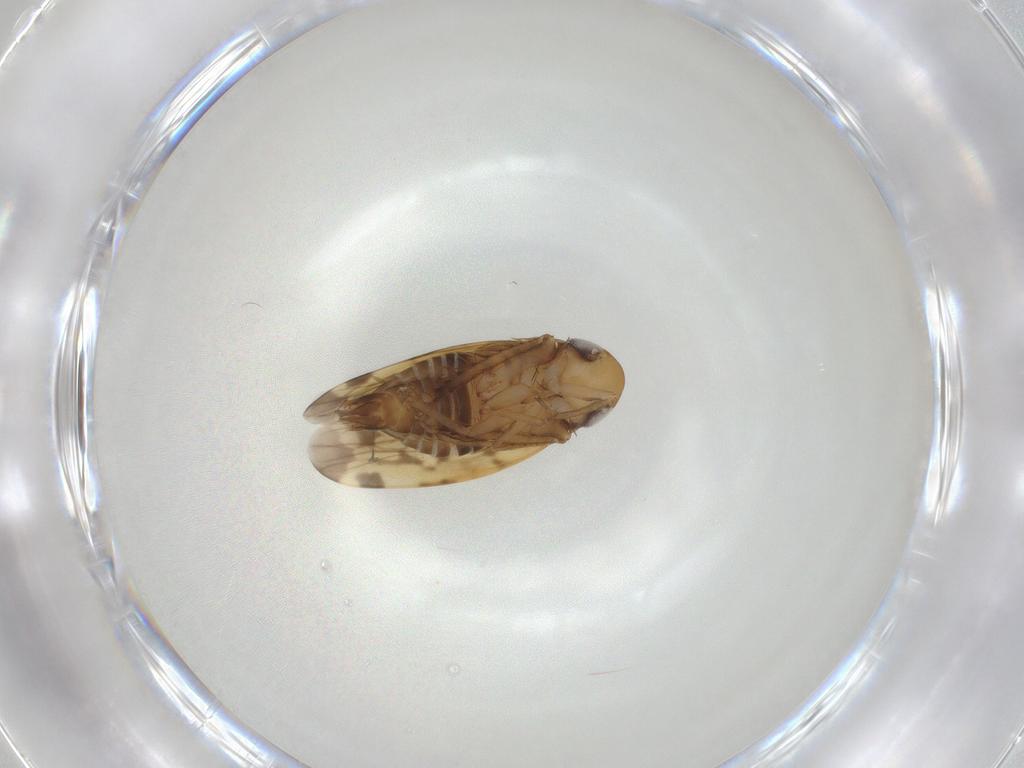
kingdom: Animalia
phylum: Arthropoda
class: Insecta
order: Hemiptera
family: Cicadellidae
